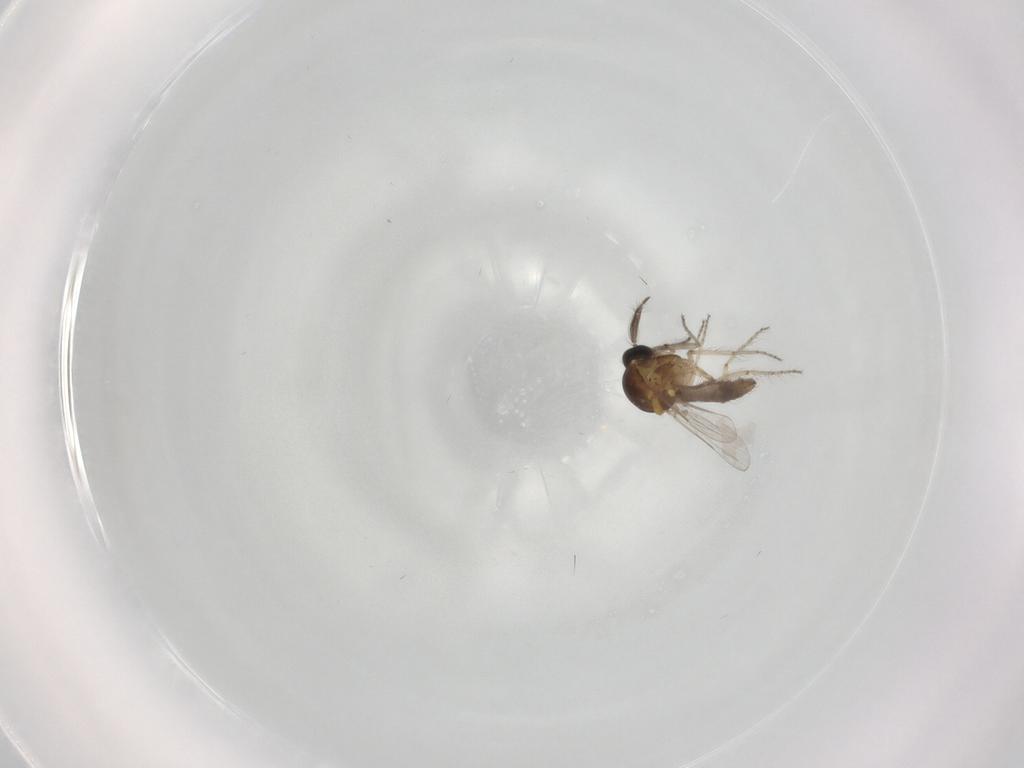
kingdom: Animalia
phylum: Arthropoda
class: Insecta
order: Diptera
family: Ceratopogonidae
